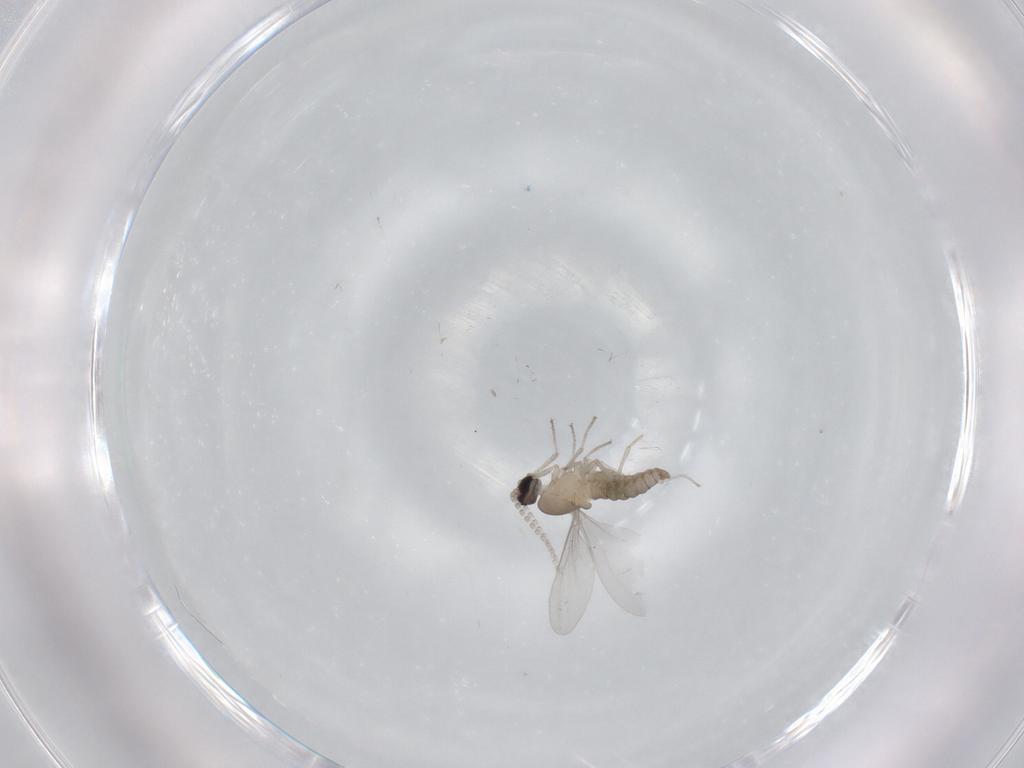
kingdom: Animalia
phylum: Arthropoda
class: Insecta
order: Diptera
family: Cecidomyiidae
